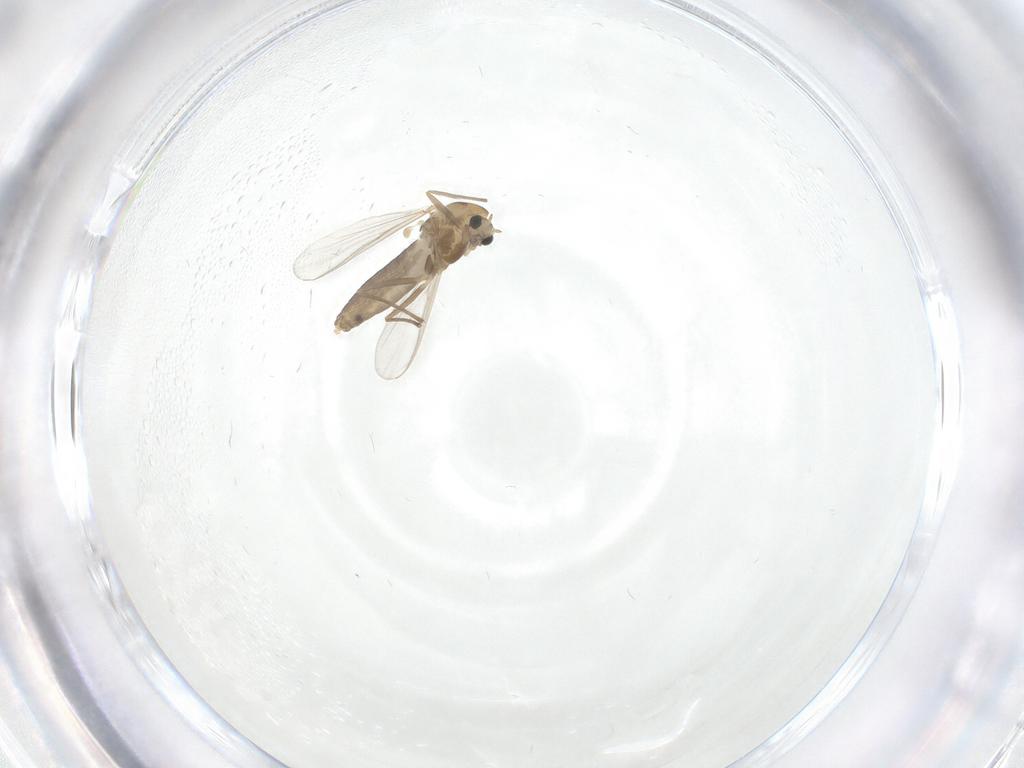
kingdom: Animalia
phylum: Arthropoda
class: Insecta
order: Diptera
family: Chironomidae
